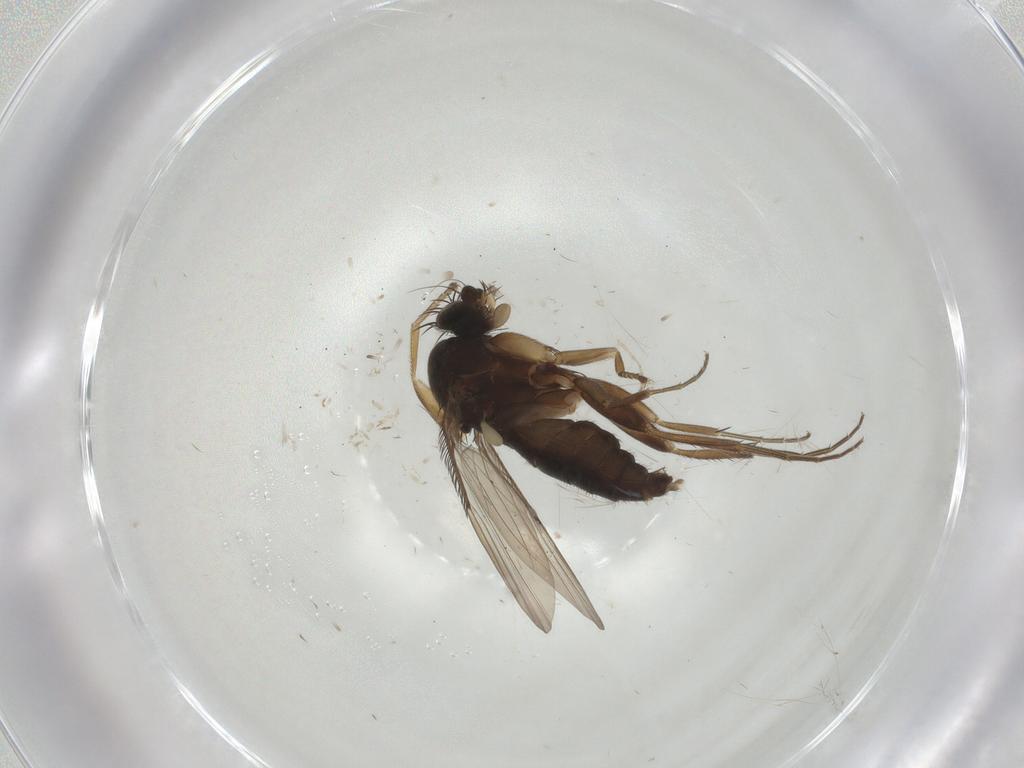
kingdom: Animalia
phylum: Arthropoda
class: Insecta
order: Diptera
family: Phoridae
